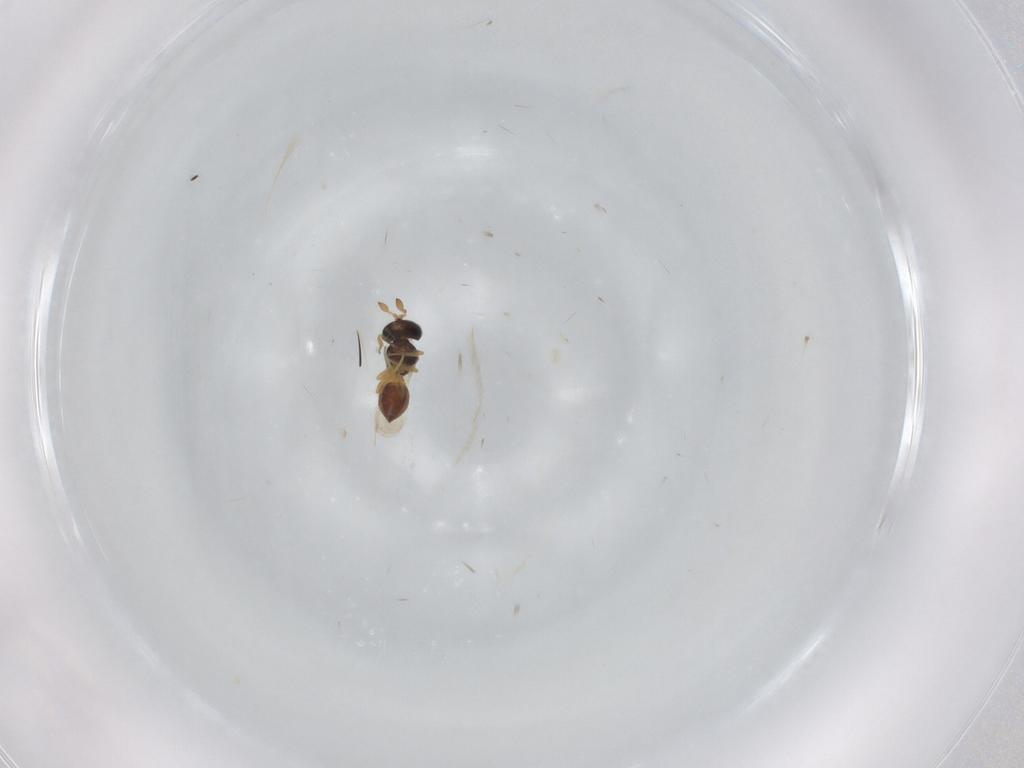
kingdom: Animalia
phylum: Arthropoda
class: Insecta
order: Hymenoptera
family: Scelionidae
